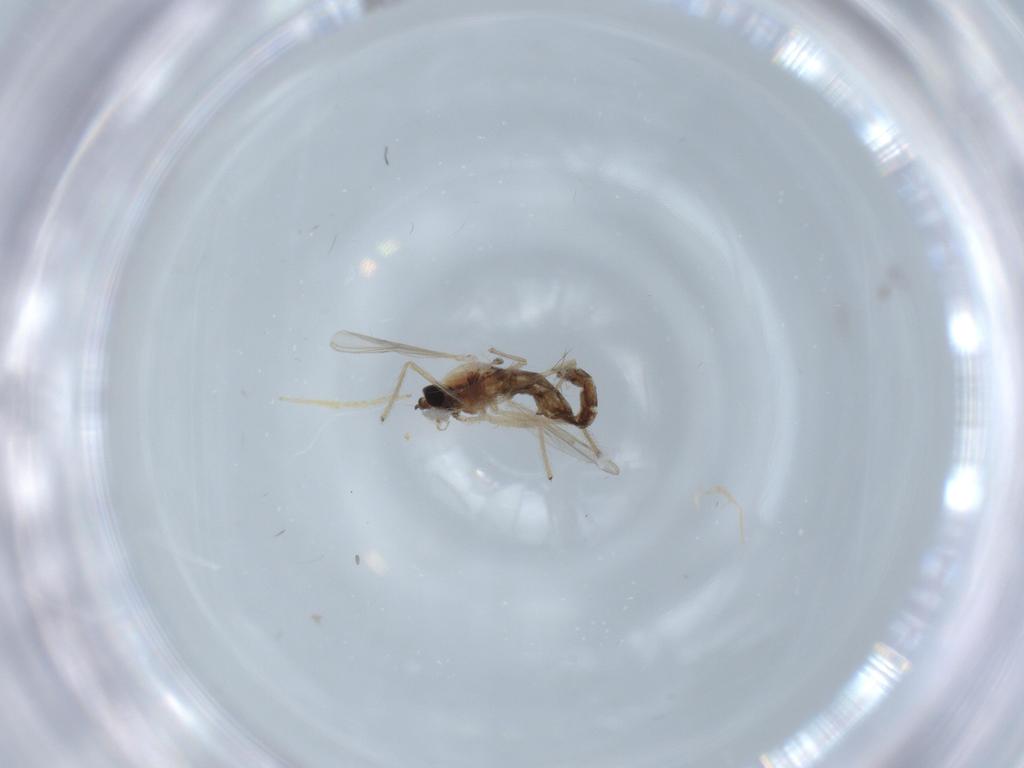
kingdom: Animalia
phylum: Arthropoda
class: Insecta
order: Diptera
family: Chironomidae
